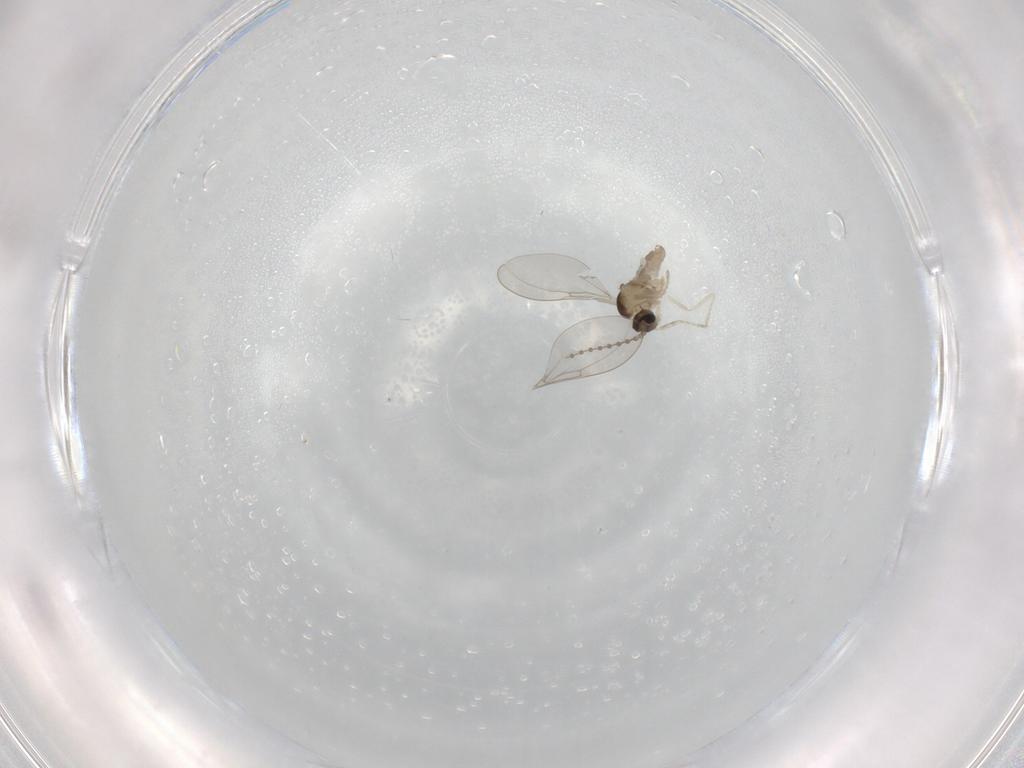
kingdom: Animalia
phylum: Arthropoda
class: Insecta
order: Diptera
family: Cecidomyiidae
